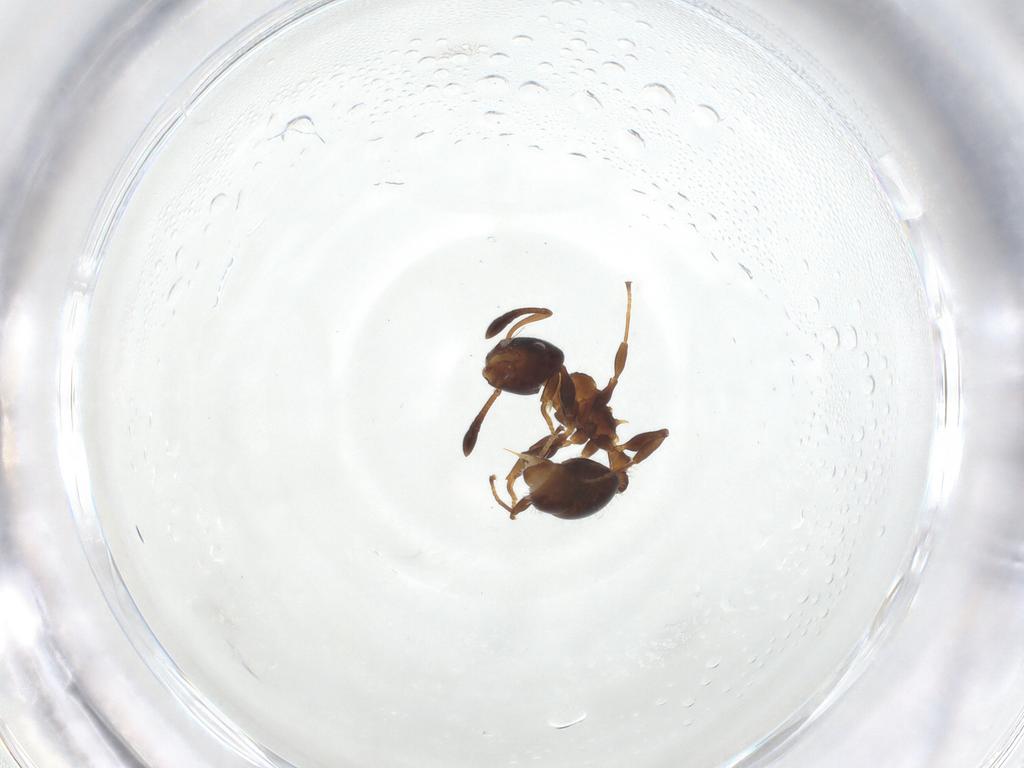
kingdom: Animalia
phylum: Arthropoda
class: Insecta
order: Hymenoptera
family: Formicidae
